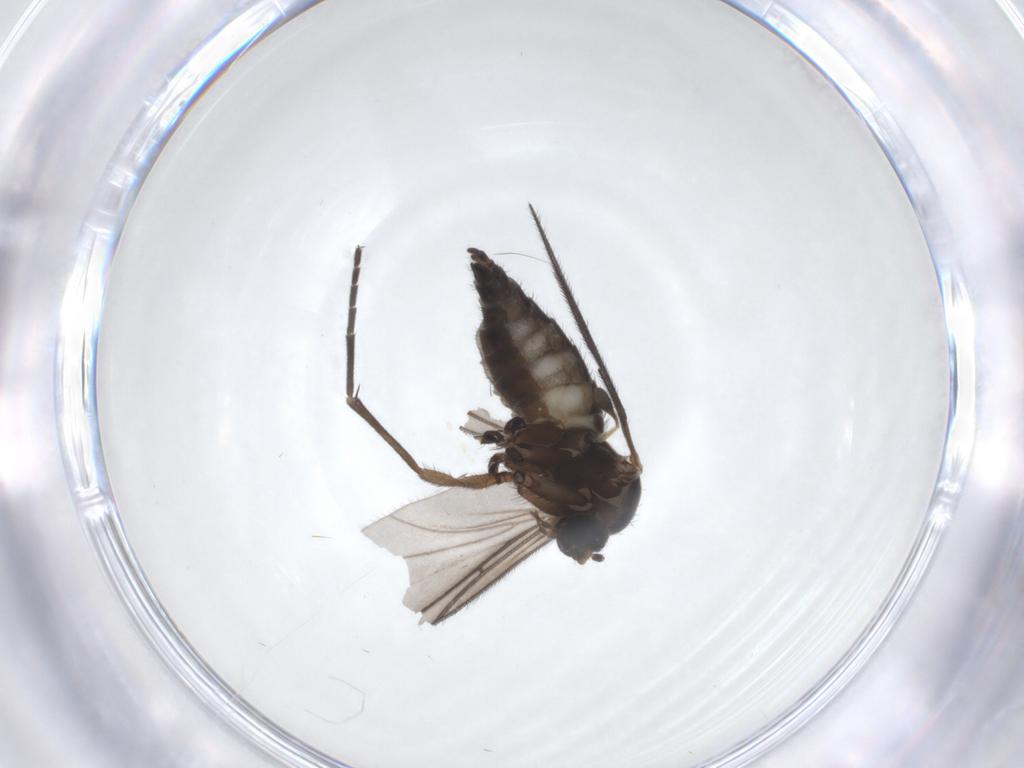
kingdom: Animalia
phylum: Arthropoda
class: Insecta
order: Diptera
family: Sciaridae
